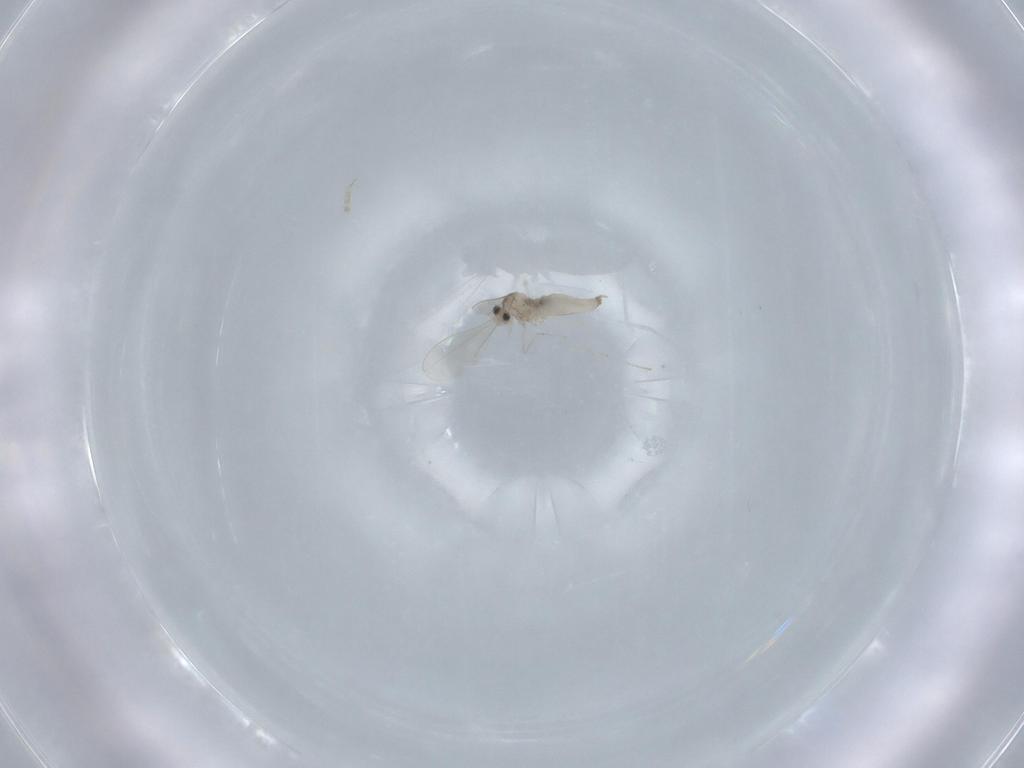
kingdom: Animalia
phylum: Arthropoda
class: Insecta
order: Diptera
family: Cecidomyiidae
